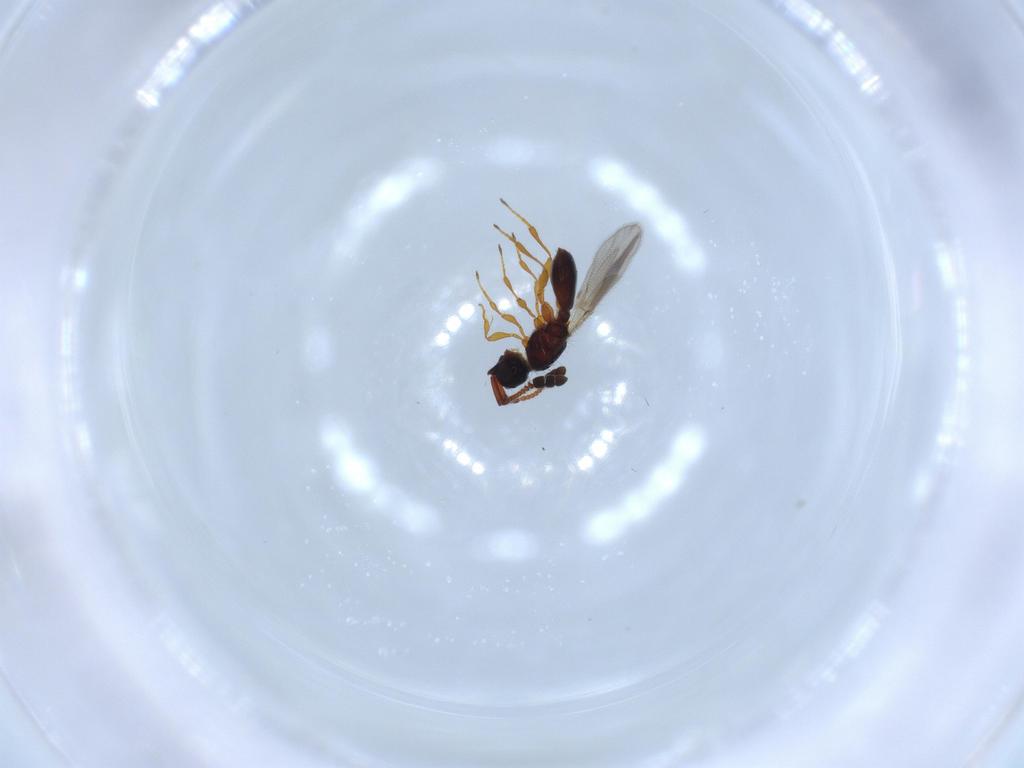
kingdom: Animalia
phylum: Arthropoda
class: Insecta
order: Hymenoptera
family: Diapriidae
